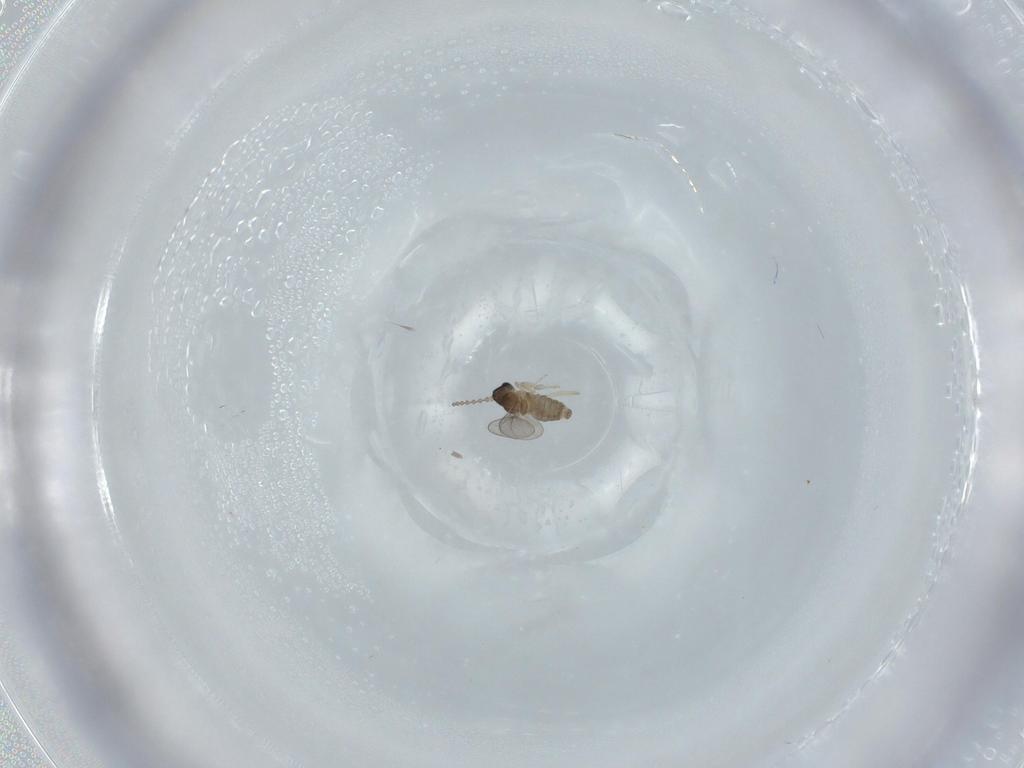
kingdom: Animalia
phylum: Arthropoda
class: Insecta
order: Diptera
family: Cecidomyiidae
